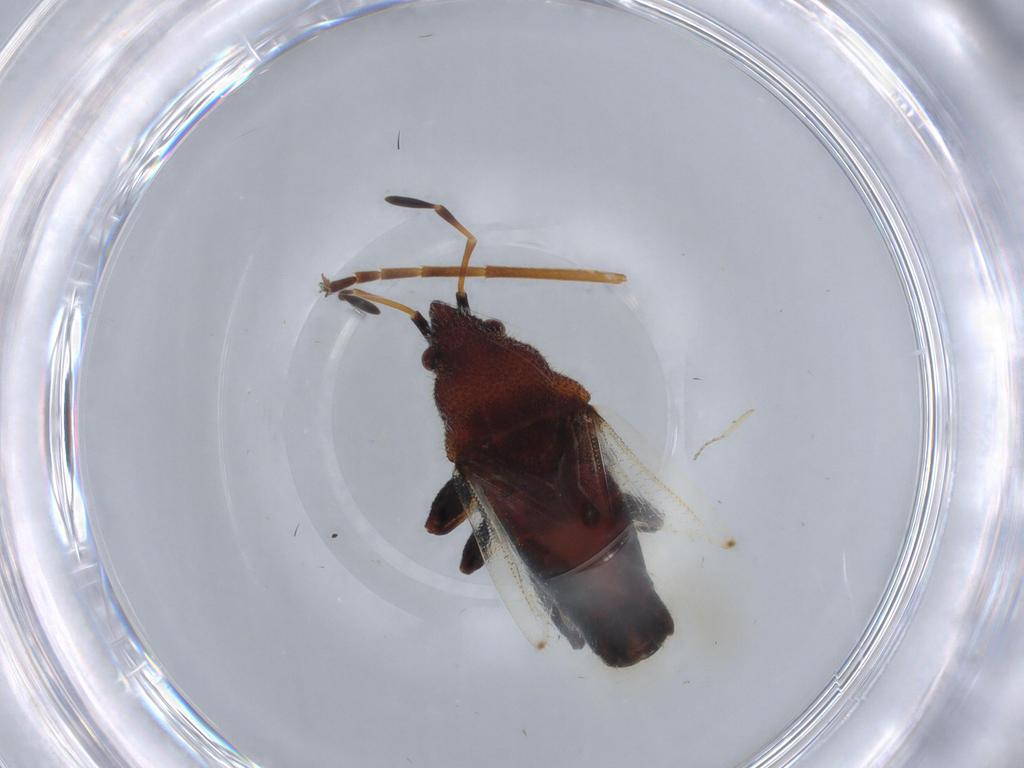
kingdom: Animalia
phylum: Arthropoda
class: Insecta
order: Hemiptera
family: Oxycarenidae
